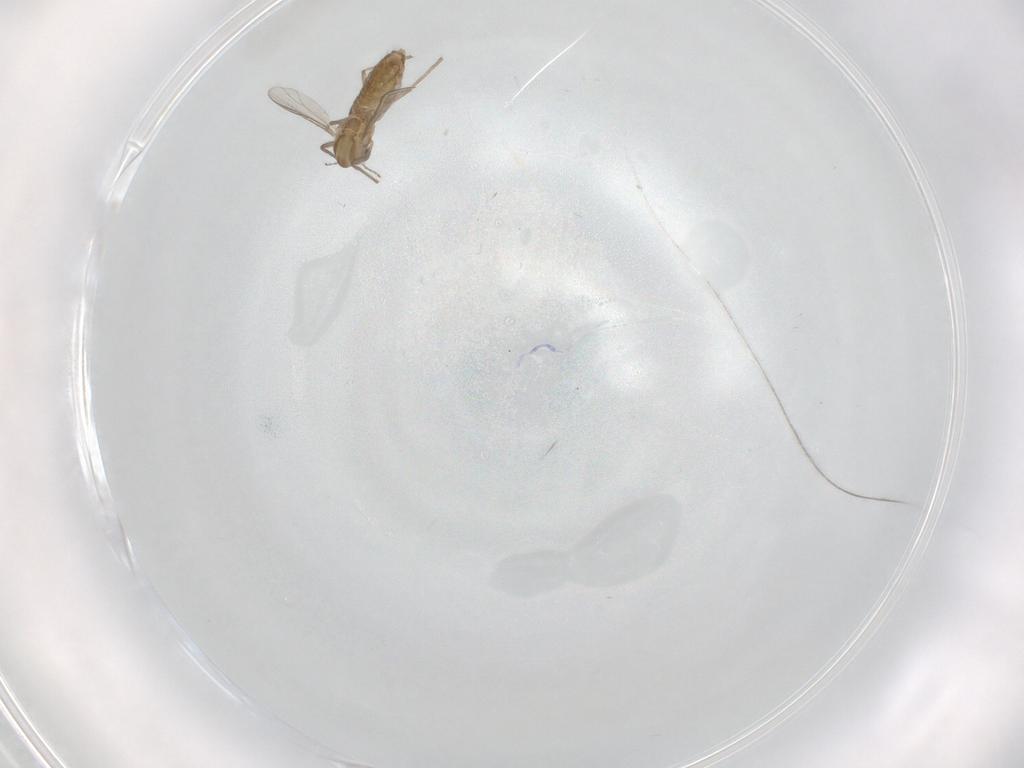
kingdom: Animalia
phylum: Arthropoda
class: Insecta
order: Diptera
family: Chironomidae
